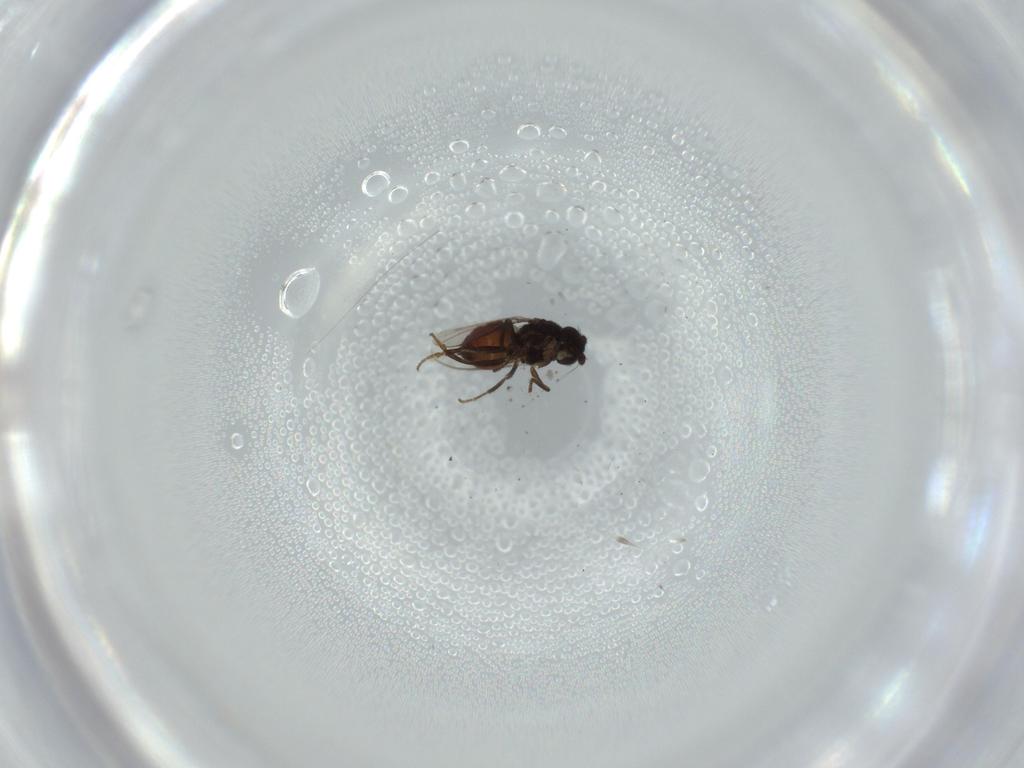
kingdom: Animalia
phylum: Arthropoda
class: Insecta
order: Diptera
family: Sphaeroceridae
